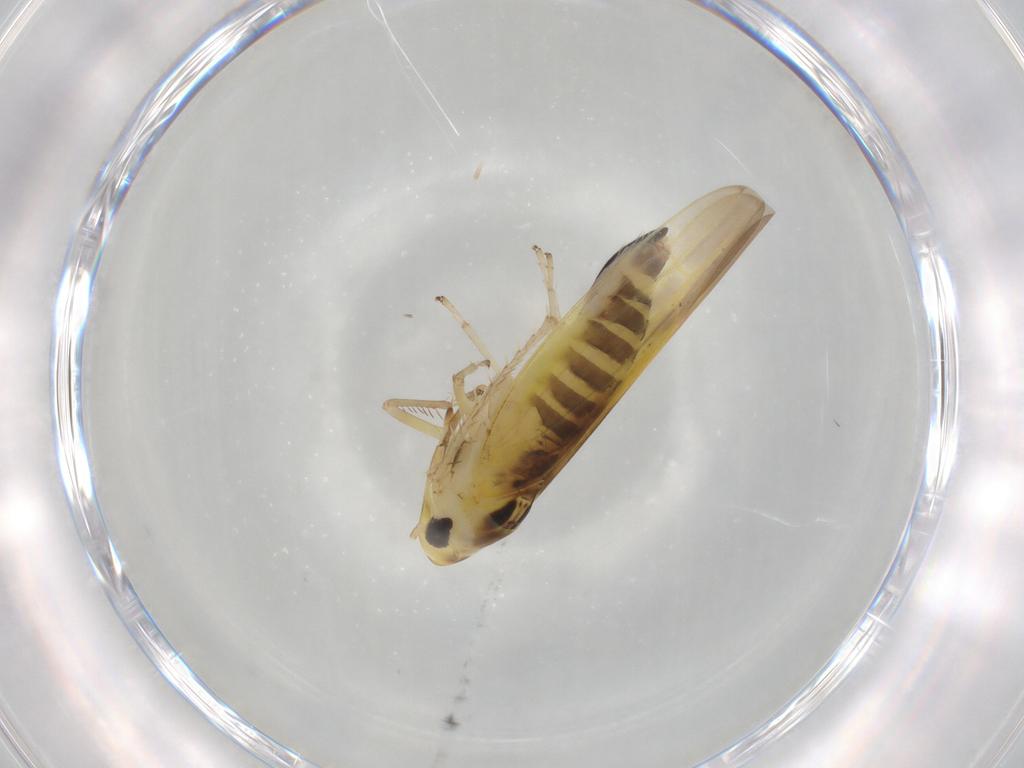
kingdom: Animalia
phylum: Arthropoda
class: Insecta
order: Hemiptera
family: Cicadellidae
